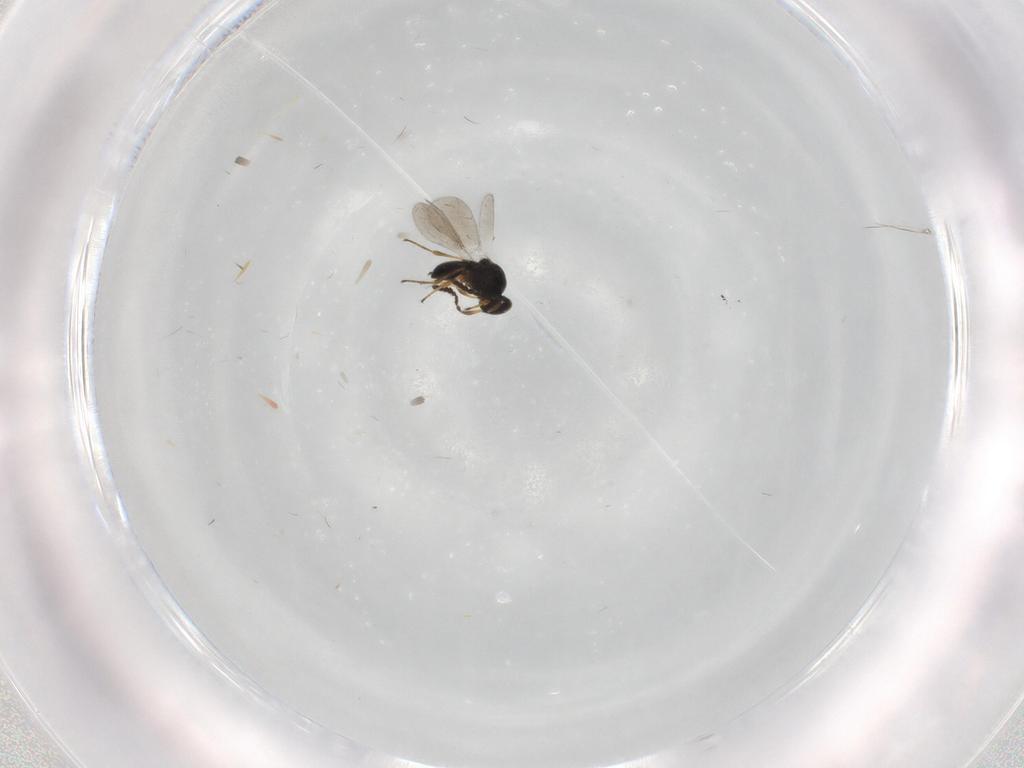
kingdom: Animalia
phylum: Arthropoda
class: Insecta
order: Hymenoptera
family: Platygastridae
